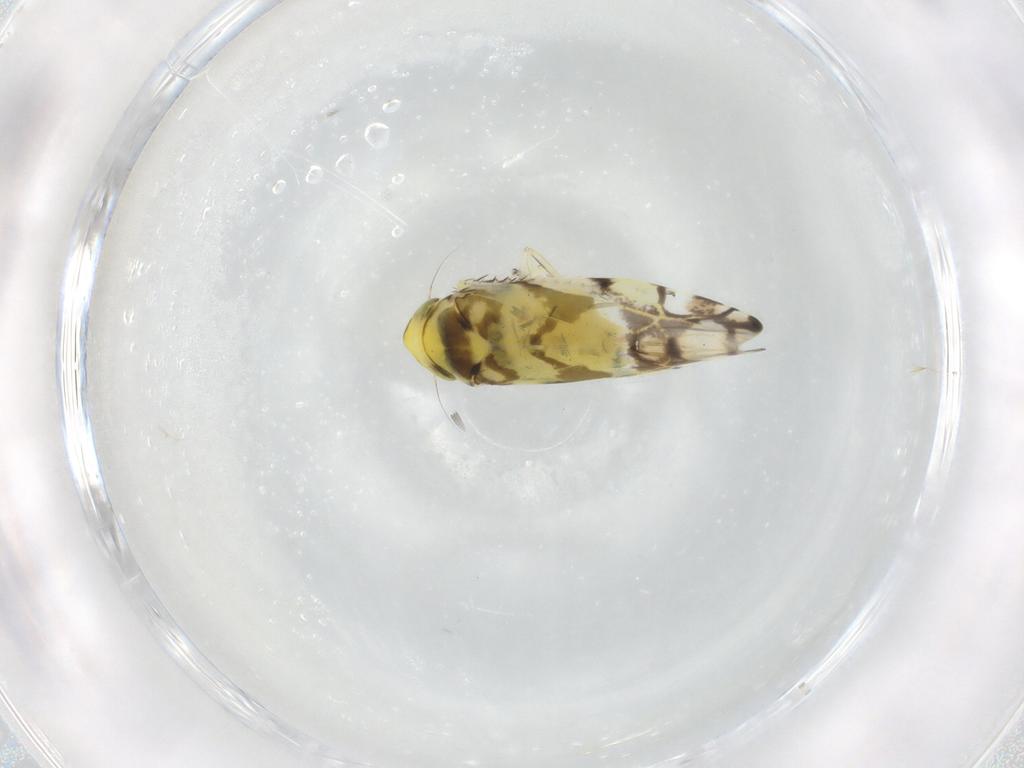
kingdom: Animalia
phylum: Arthropoda
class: Insecta
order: Hemiptera
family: Cicadellidae
